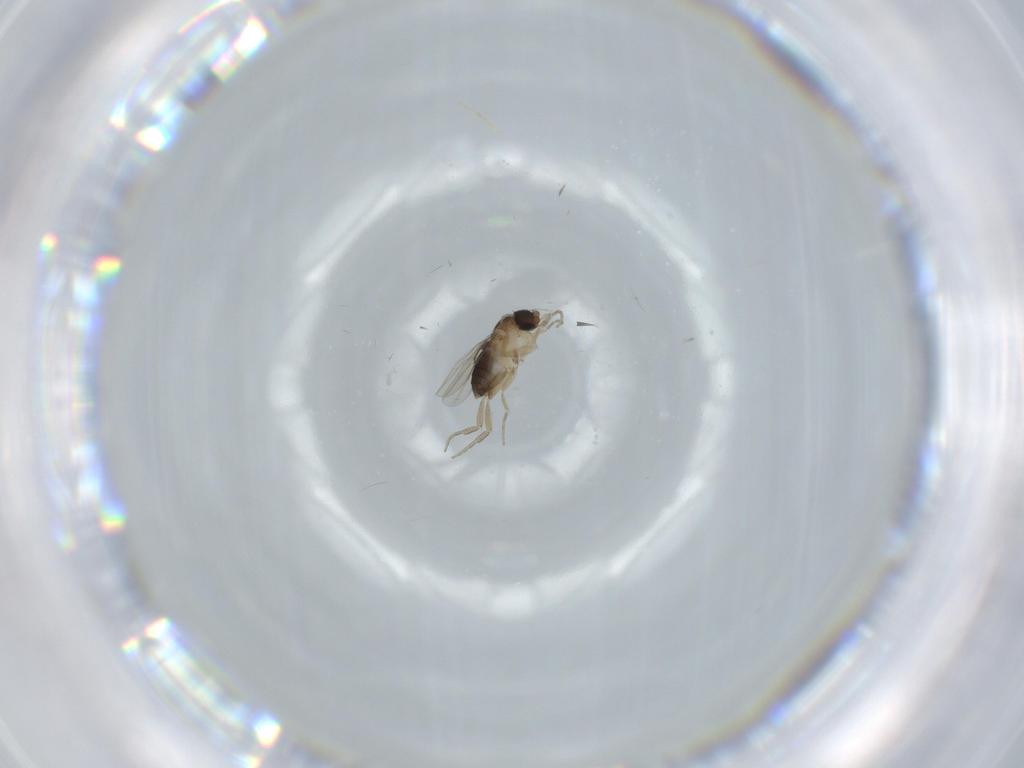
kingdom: Animalia
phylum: Arthropoda
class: Insecta
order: Diptera
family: Phoridae
